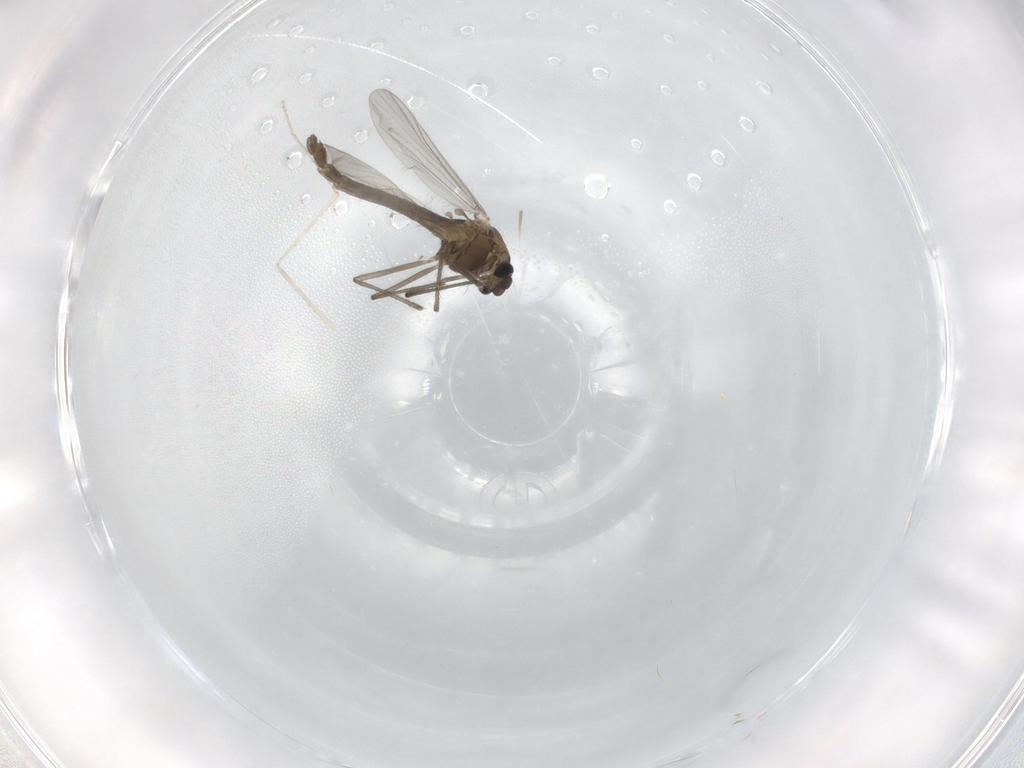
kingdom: Animalia
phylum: Arthropoda
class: Insecta
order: Diptera
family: Chironomidae
